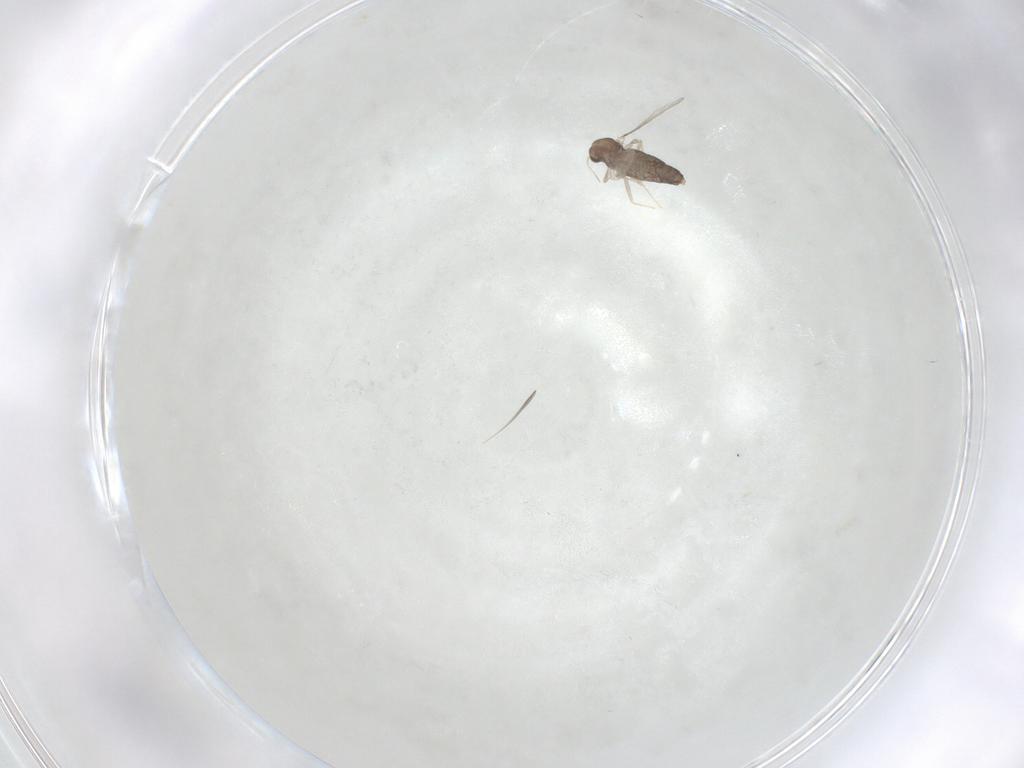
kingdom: Animalia
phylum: Arthropoda
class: Insecta
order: Diptera
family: Chironomidae
